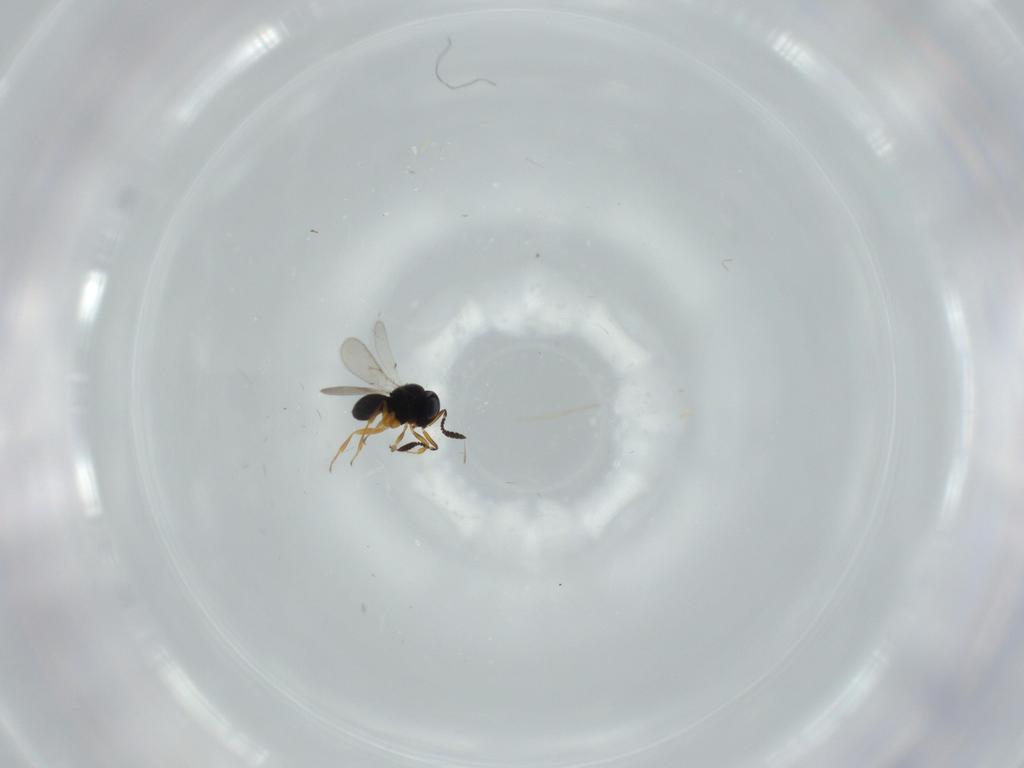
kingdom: Animalia
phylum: Arthropoda
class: Insecta
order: Hymenoptera
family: Scelionidae
